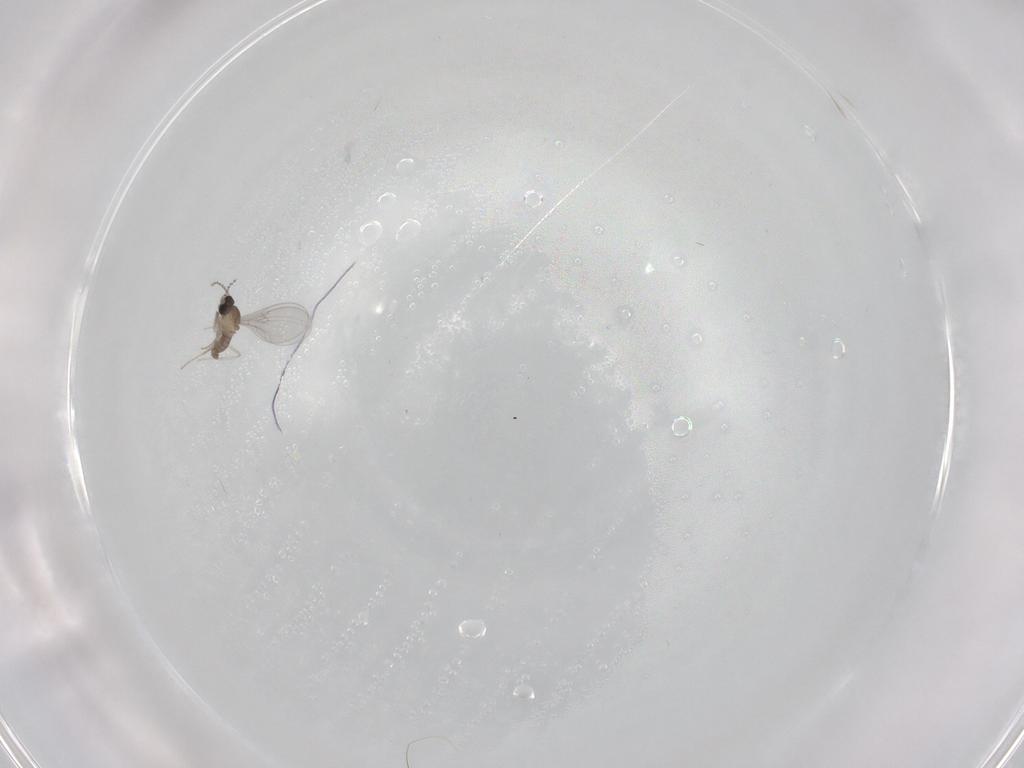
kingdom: Animalia
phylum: Arthropoda
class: Insecta
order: Diptera
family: Cecidomyiidae
